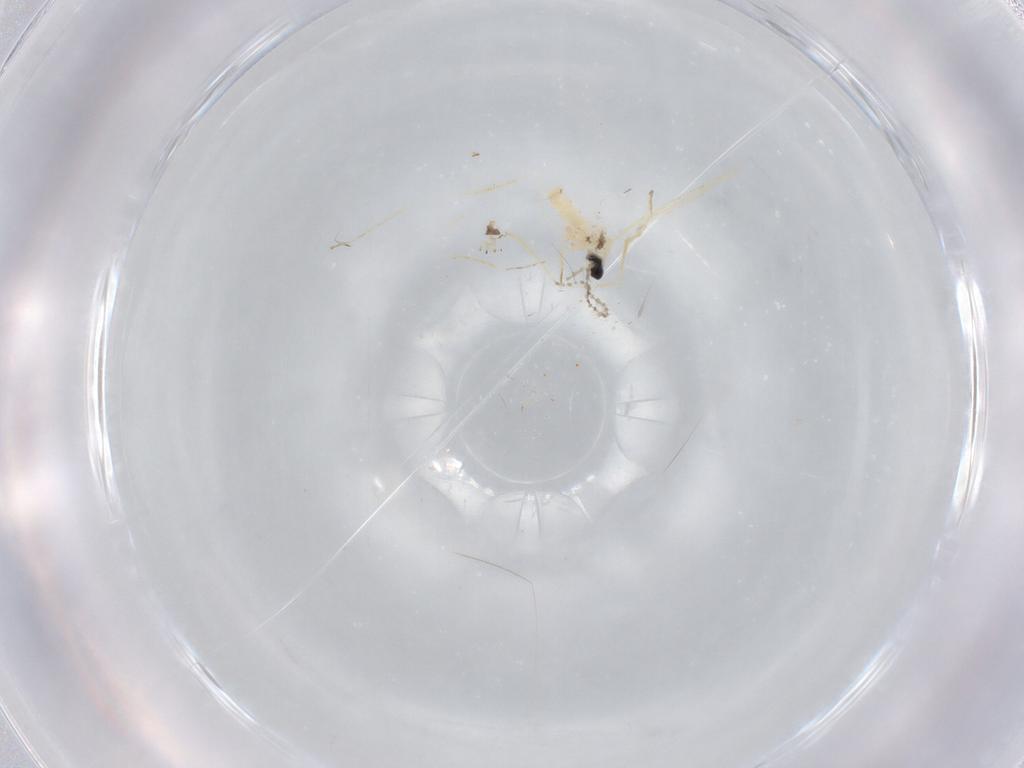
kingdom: Animalia
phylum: Arthropoda
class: Insecta
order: Diptera
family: Cecidomyiidae
